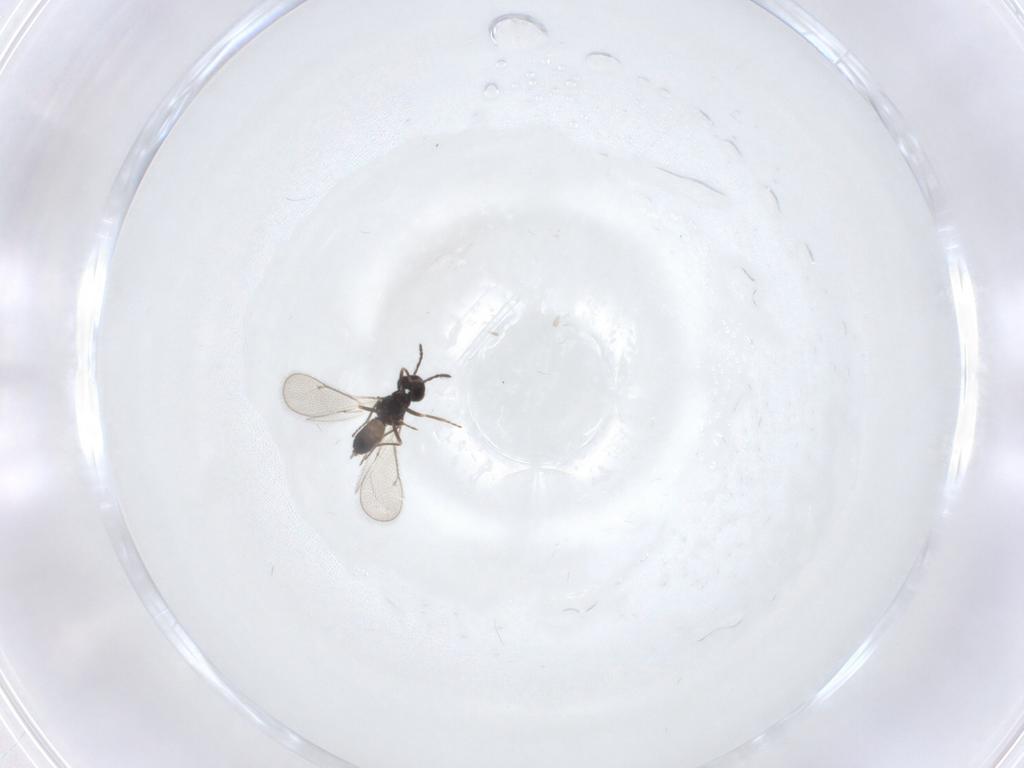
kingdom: Animalia
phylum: Arthropoda
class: Insecta
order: Hymenoptera
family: Eulophidae
